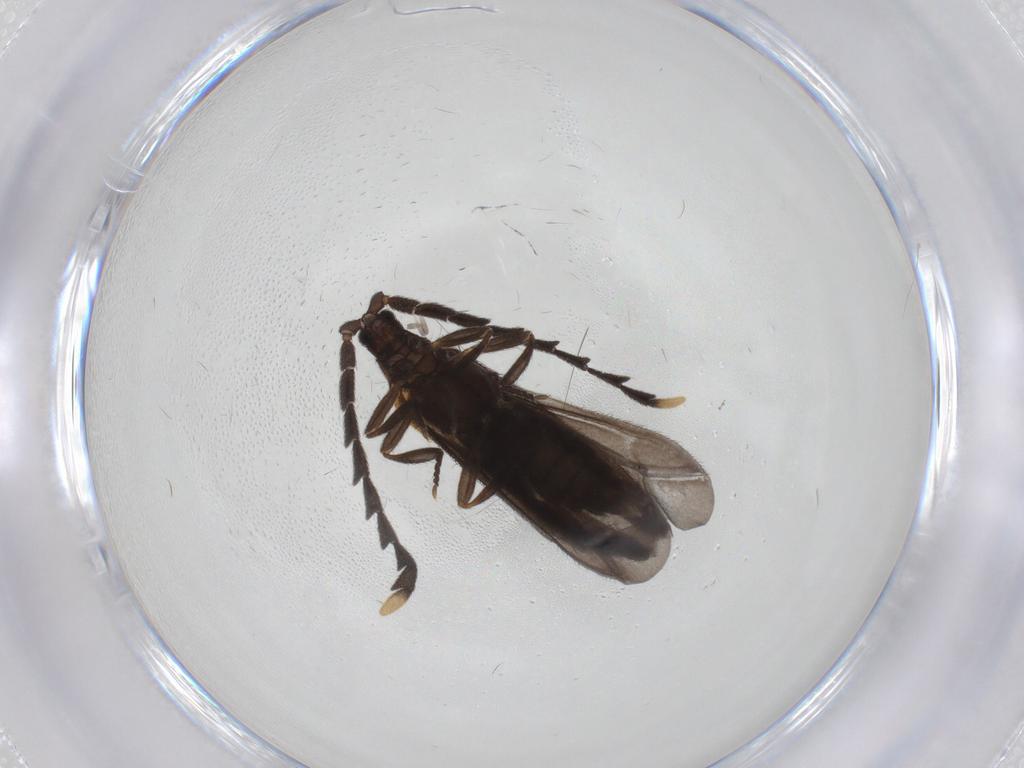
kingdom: Animalia
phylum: Arthropoda
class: Insecta
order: Coleoptera
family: Lycidae
